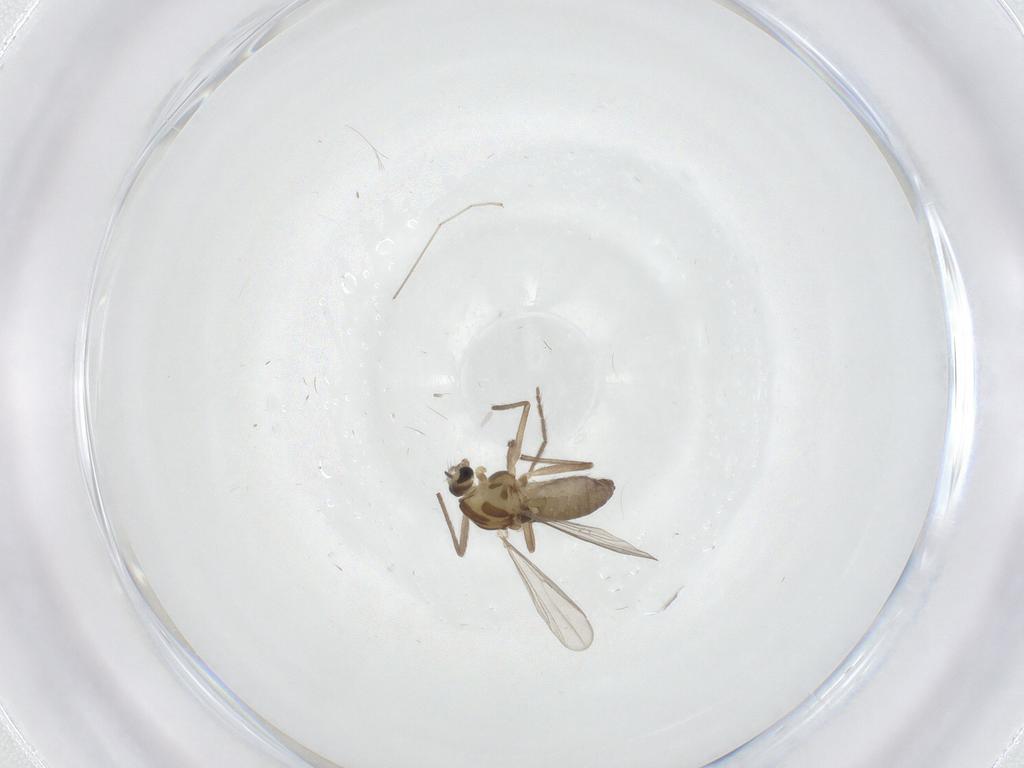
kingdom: Animalia
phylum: Arthropoda
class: Insecta
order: Diptera
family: Chironomidae
